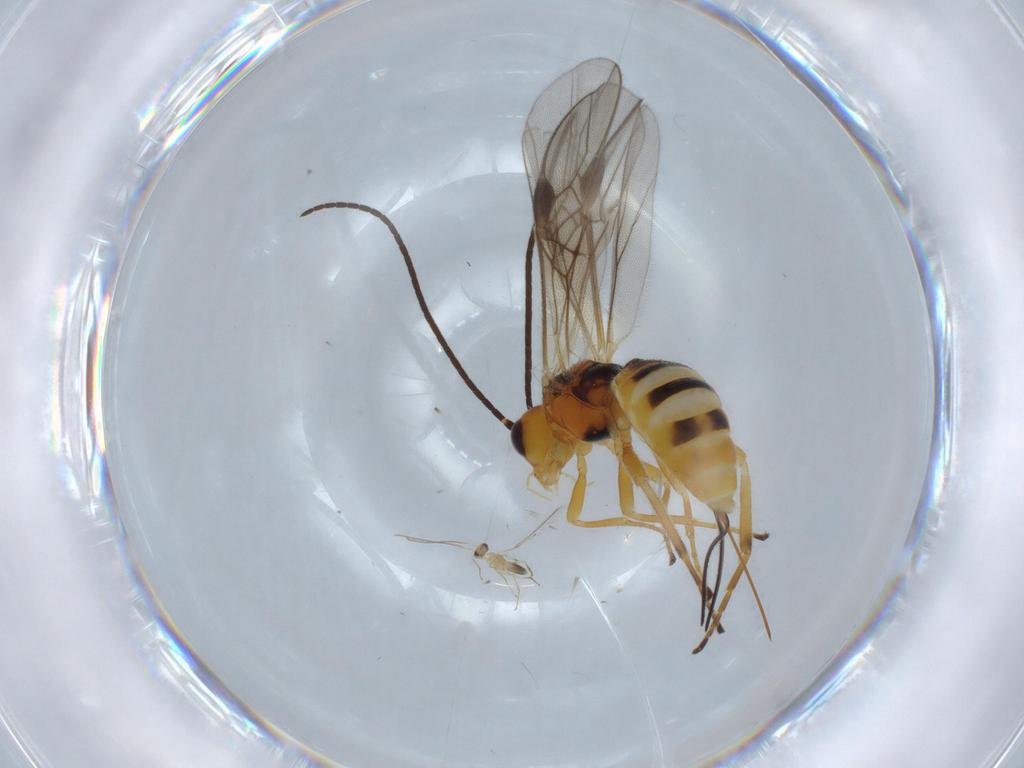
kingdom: Animalia
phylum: Arthropoda
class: Insecta
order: Hymenoptera
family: Braconidae
